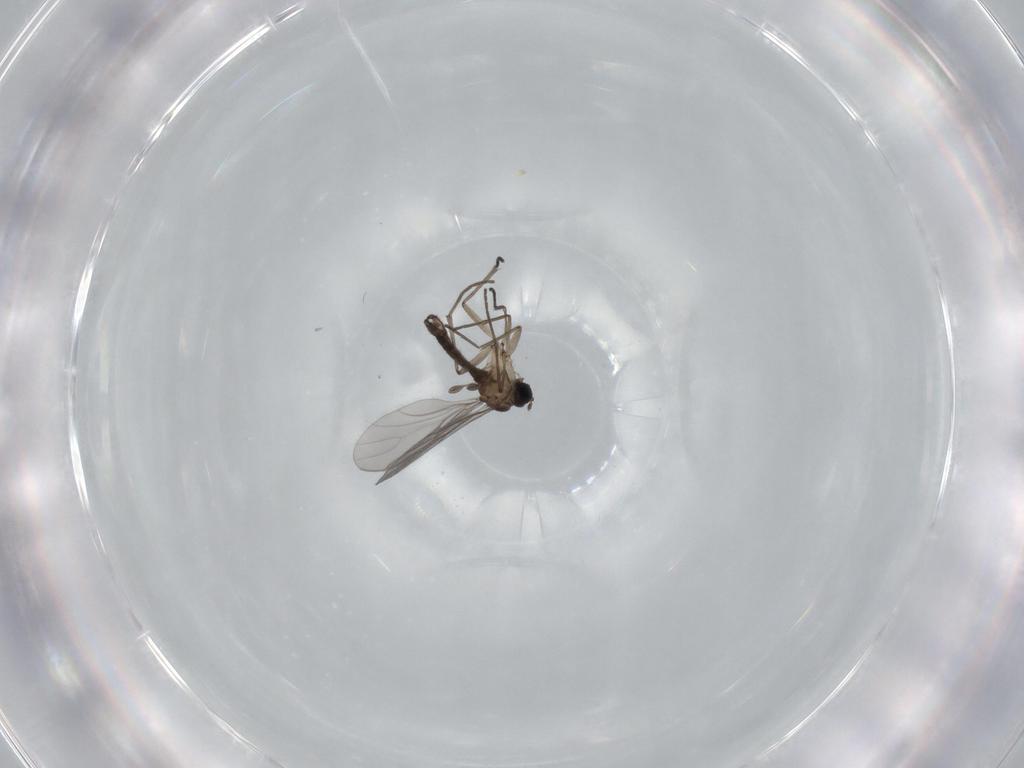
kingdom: Animalia
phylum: Arthropoda
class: Insecta
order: Diptera
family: Sciaridae
